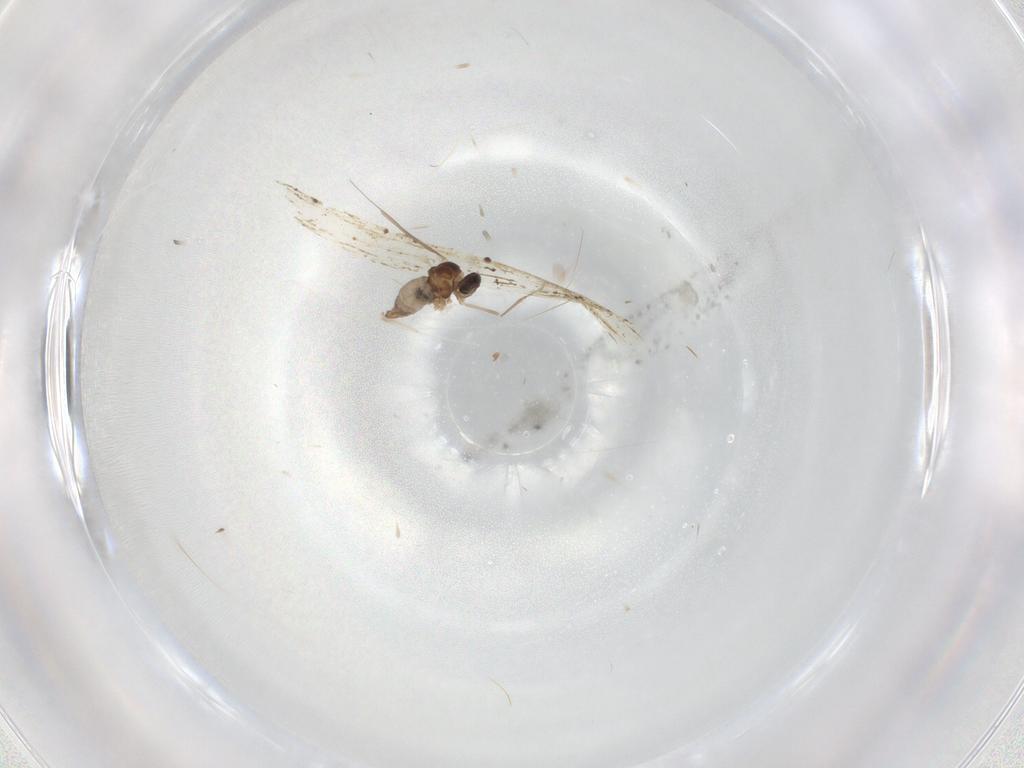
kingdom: Animalia
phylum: Arthropoda
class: Insecta
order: Diptera
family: Cecidomyiidae
